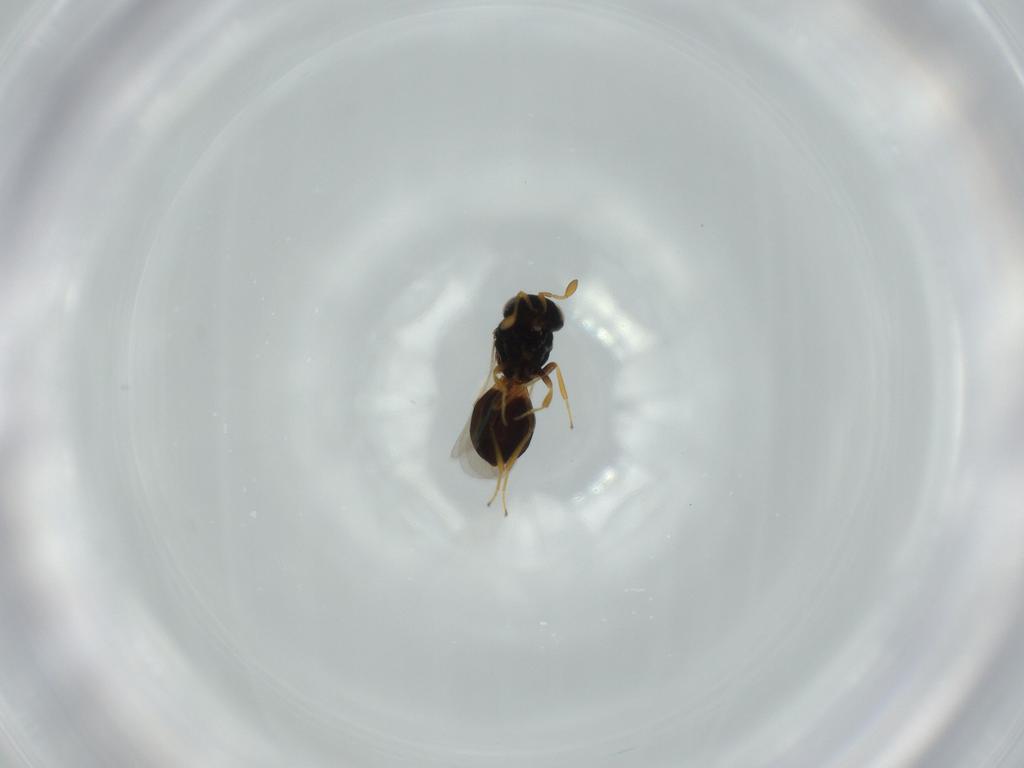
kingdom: Animalia
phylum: Arthropoda
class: Insecta
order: Hymenoptera
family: Scelionidae
